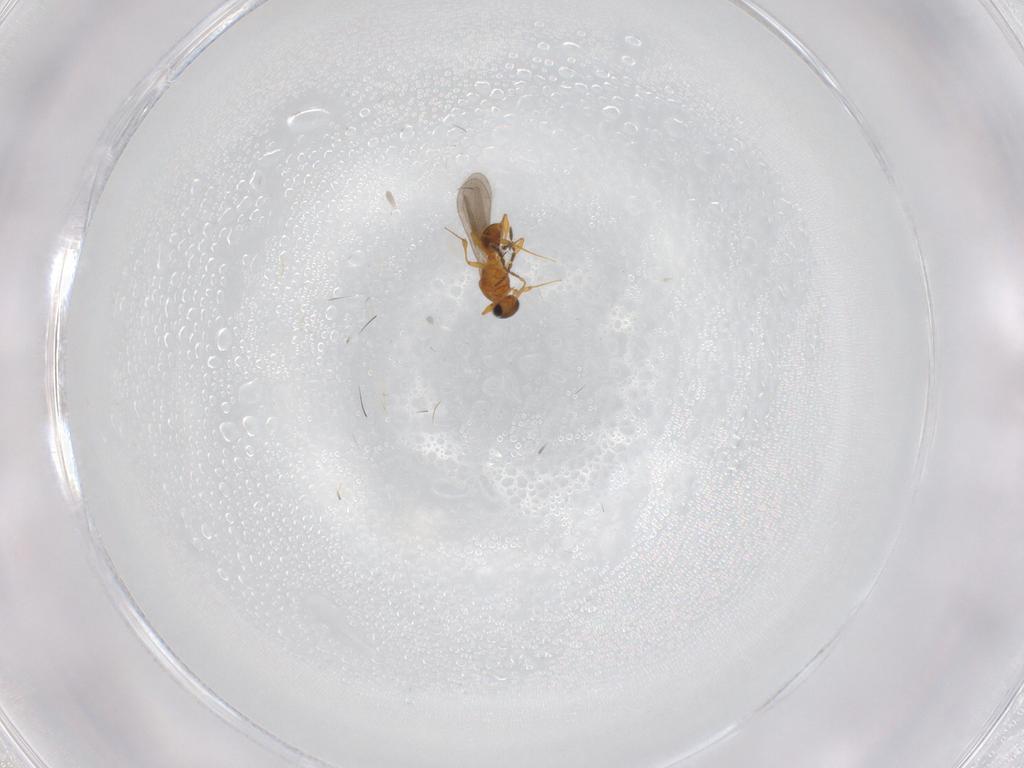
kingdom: Animalia
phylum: Arthropoda
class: Insecta
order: Hymenoptera
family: Platygastridae
